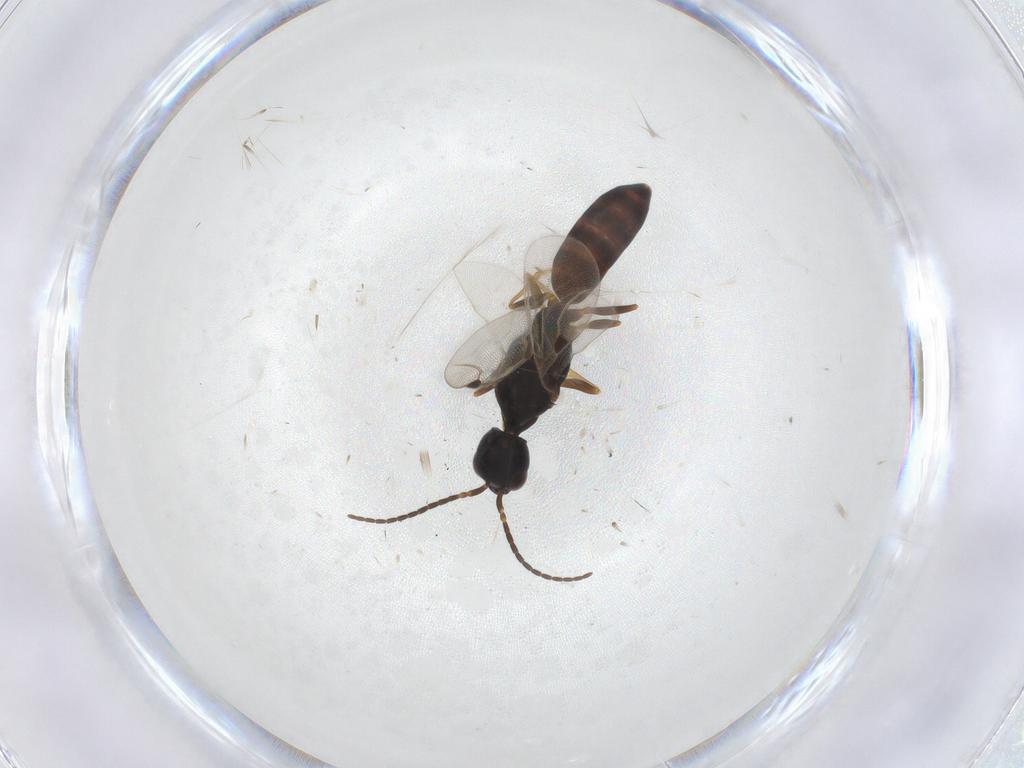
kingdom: Animalia
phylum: Arthropoda
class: Insecta
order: Hymenoptera
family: Bethylidae
